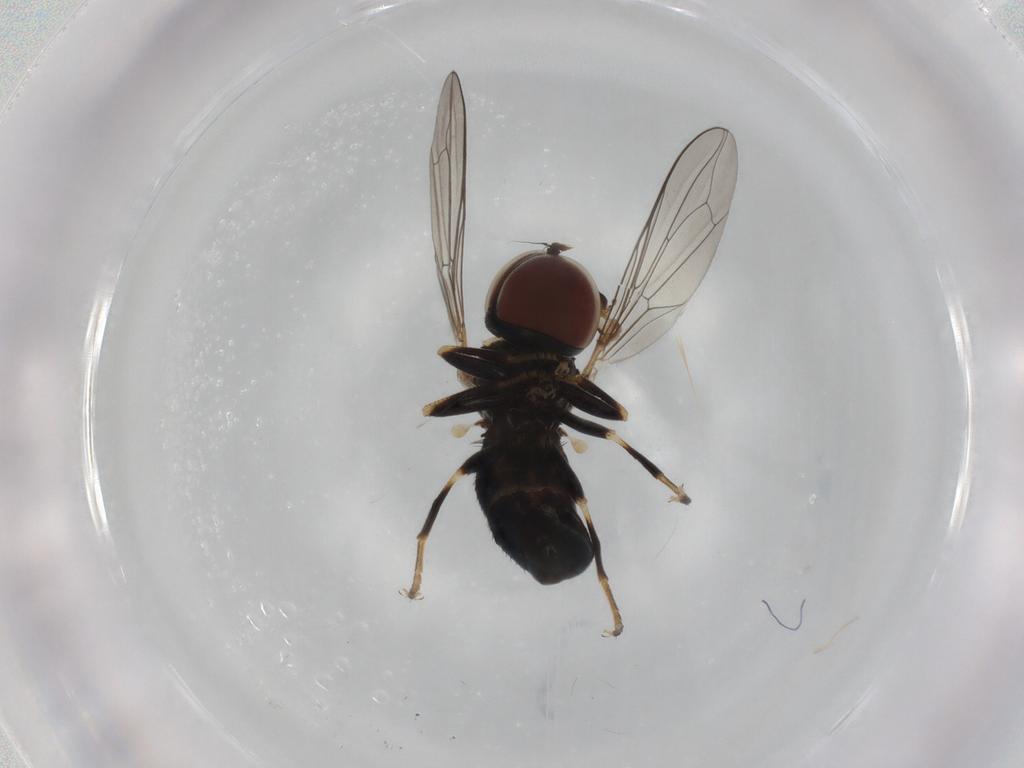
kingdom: Animalia
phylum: Arthropoda
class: Insecta
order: Diptera
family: Pipunculidae
